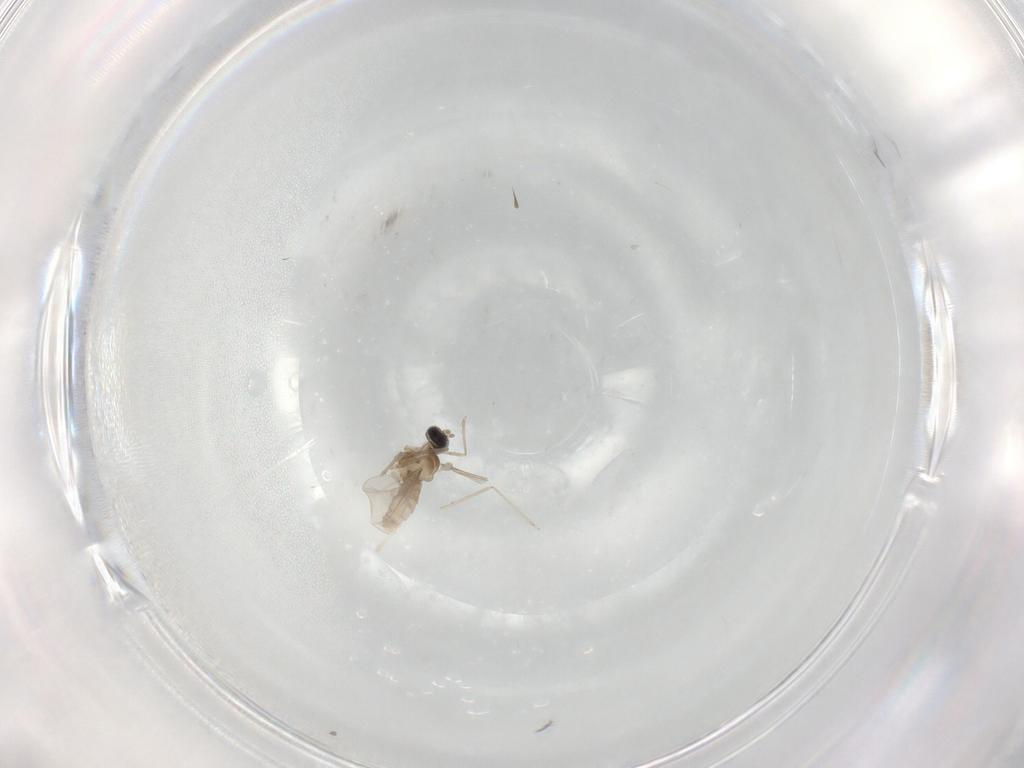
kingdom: Animalia
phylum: Arthropoda
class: Insecta
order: Diptera
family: Cecidomyiidae
